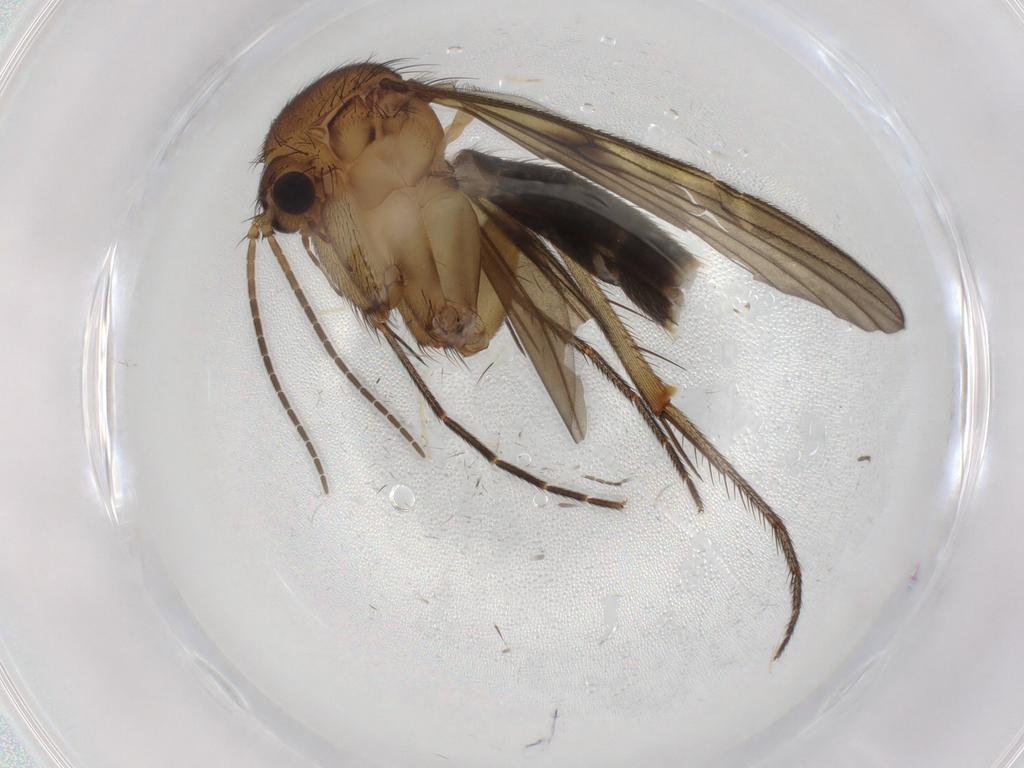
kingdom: Animalia
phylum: Arthropoda
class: Insecta
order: Diptera
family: Mycetophilidae
